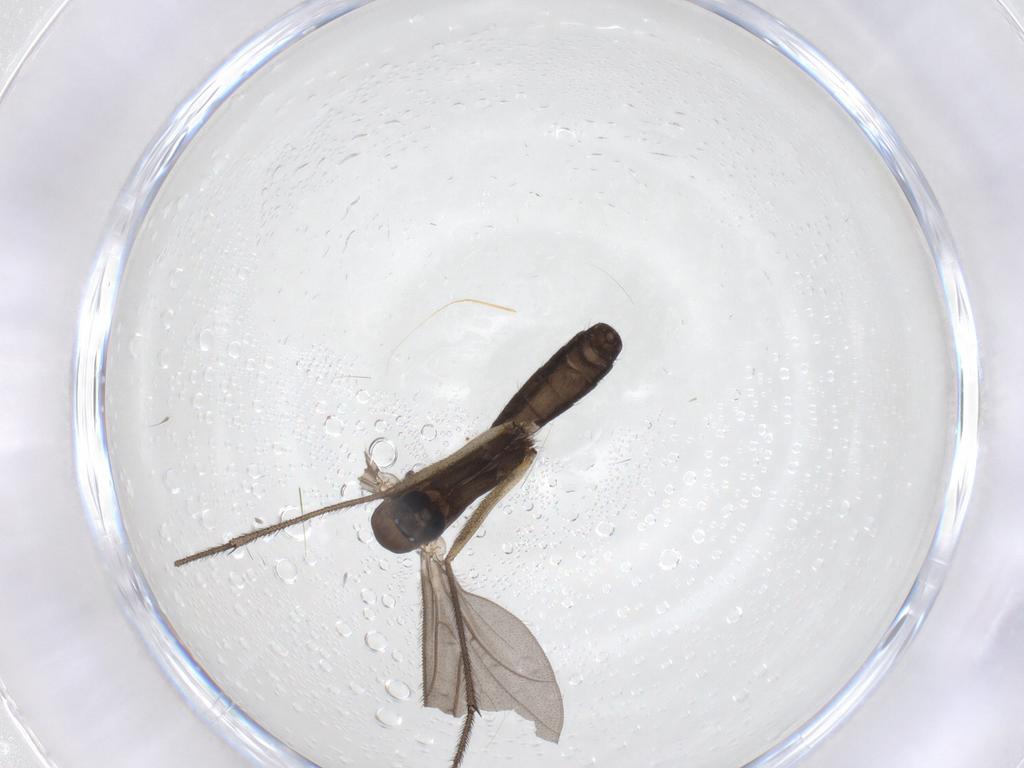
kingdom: Animalia
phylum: Arthropoda
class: Insecta
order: Diptera
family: Ditomyiidae
